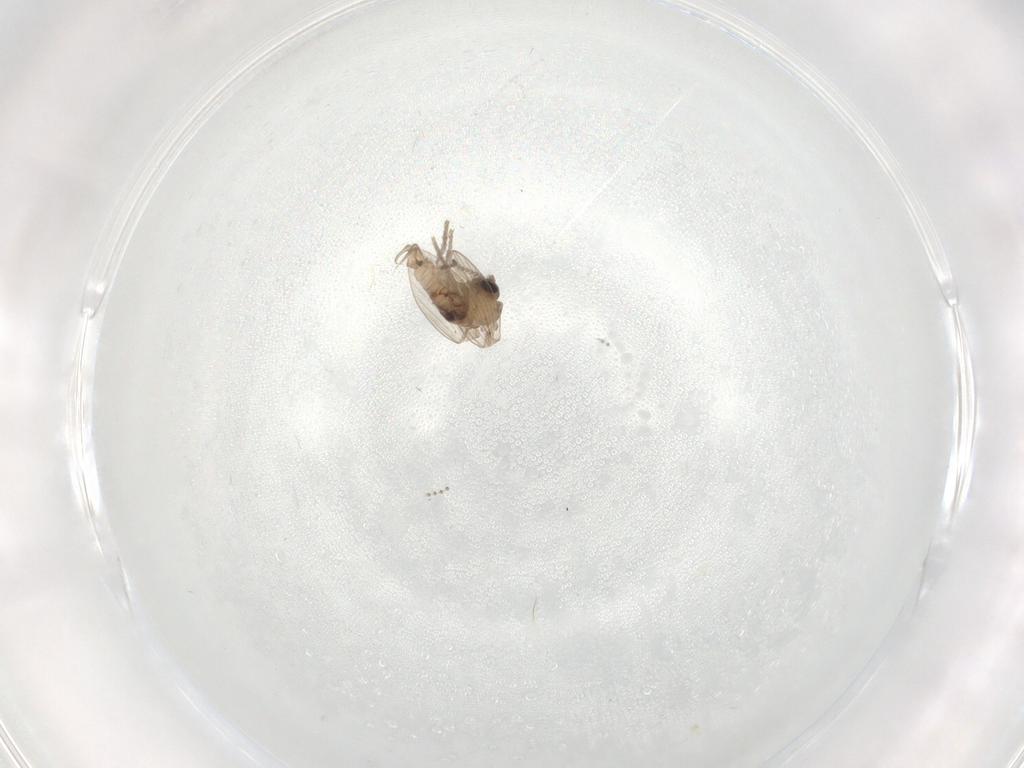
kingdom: Animalia
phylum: Arthropoda
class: Insecta
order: Diptera
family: Psychodidae
